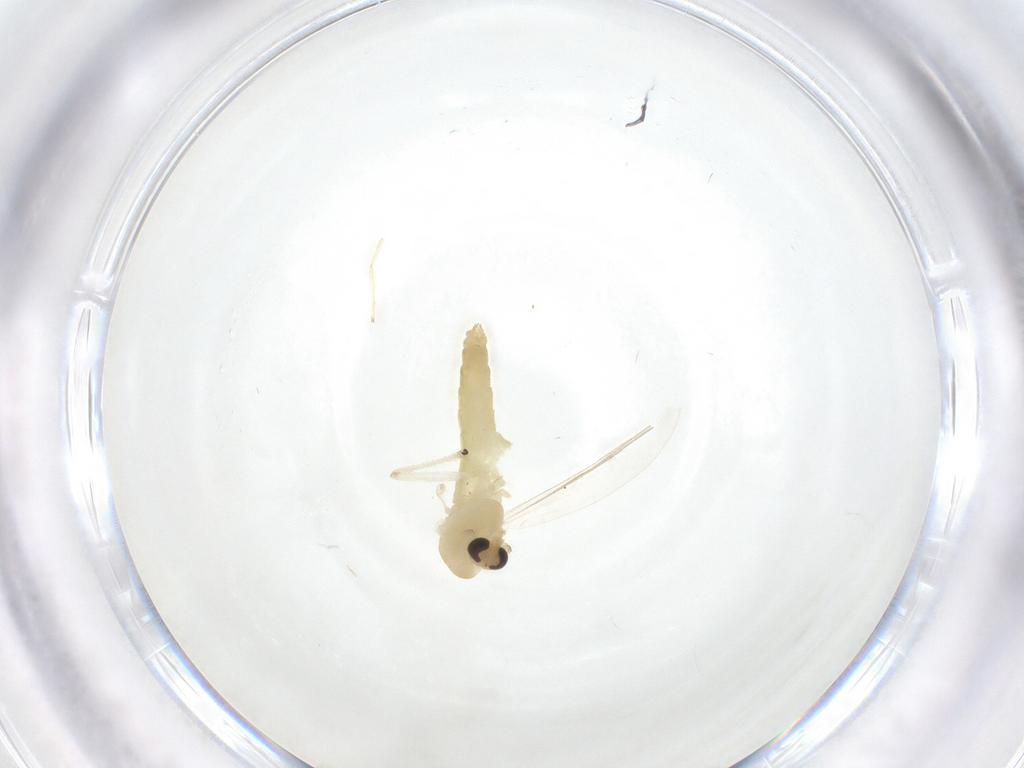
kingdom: Animalia
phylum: Arthropoda
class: Insecta
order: Diptera
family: Chironomidae
